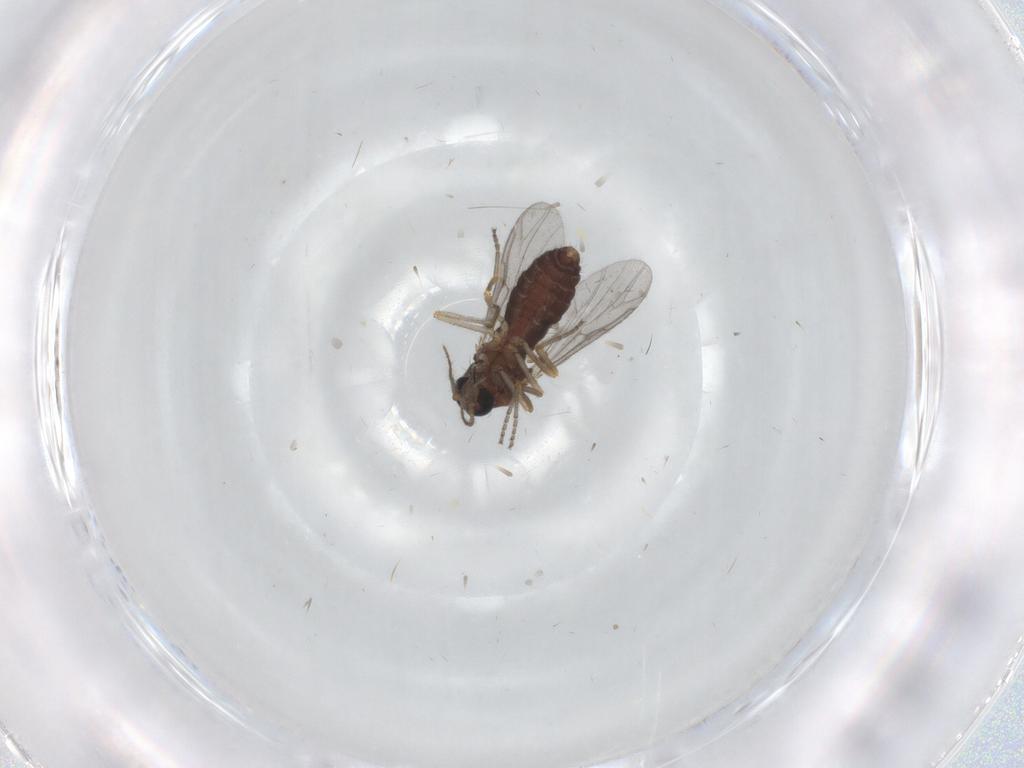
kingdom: Animalia
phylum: Arthropoda
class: Insecta
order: Diptera
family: Ceratopogonidae
